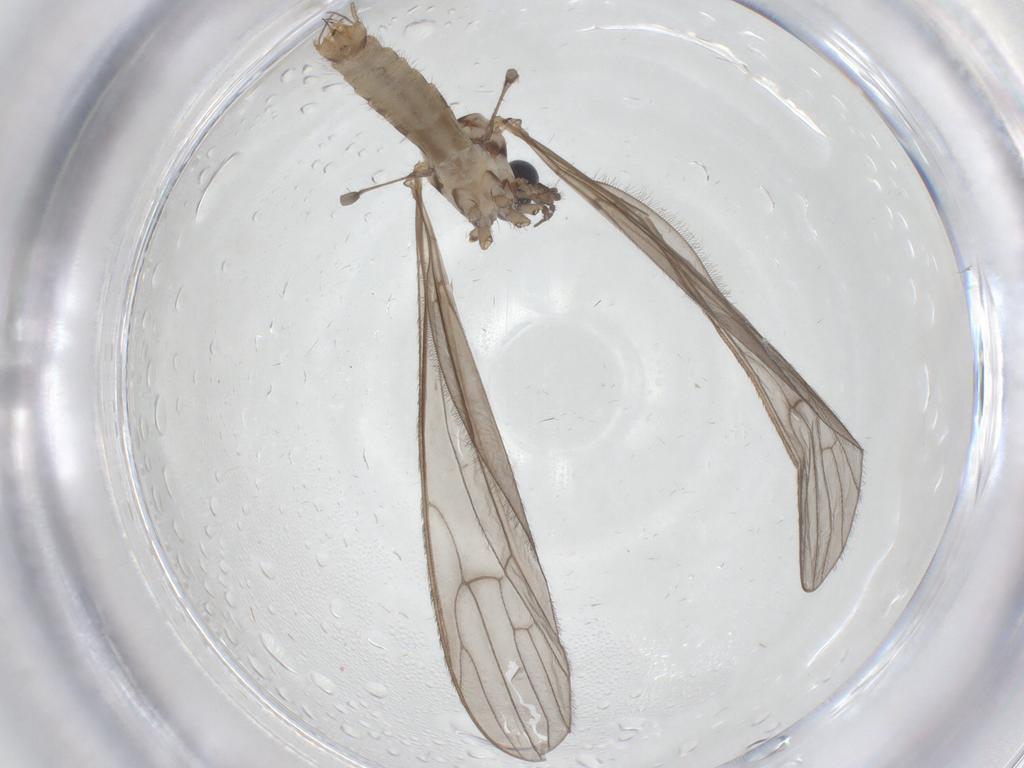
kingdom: Animalia
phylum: Arthropoda
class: Insecta
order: Diptera
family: Limoniidae
